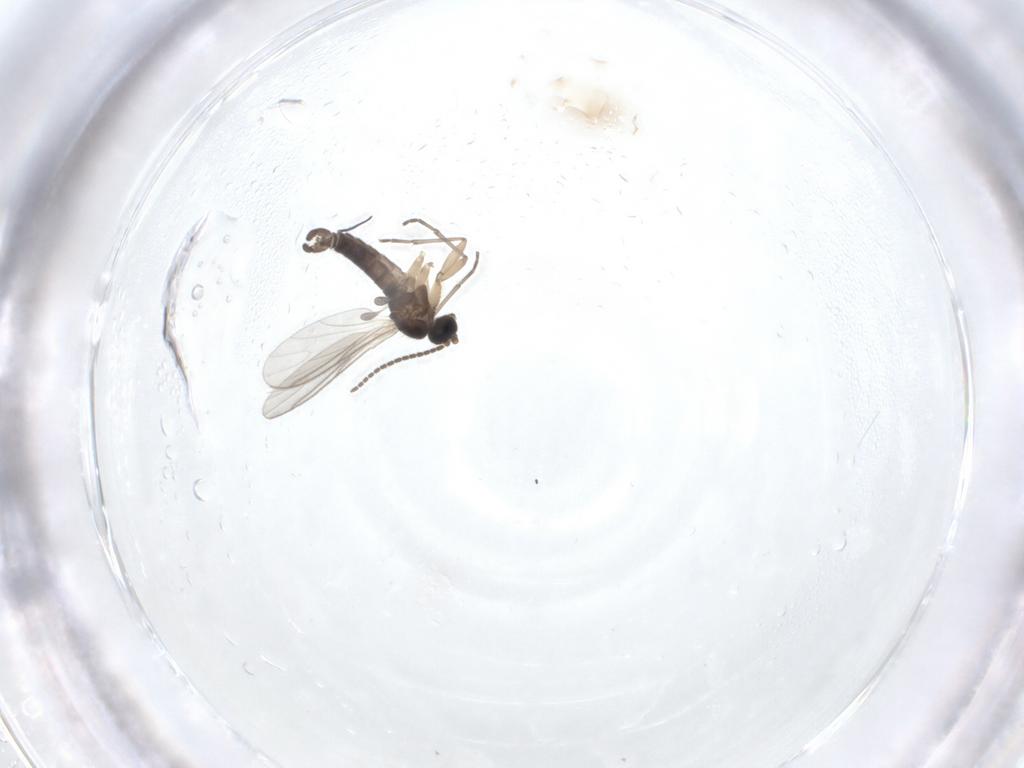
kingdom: Animalia
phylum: Arthropoda
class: Insecta
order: Diptera
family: Sciaridae
